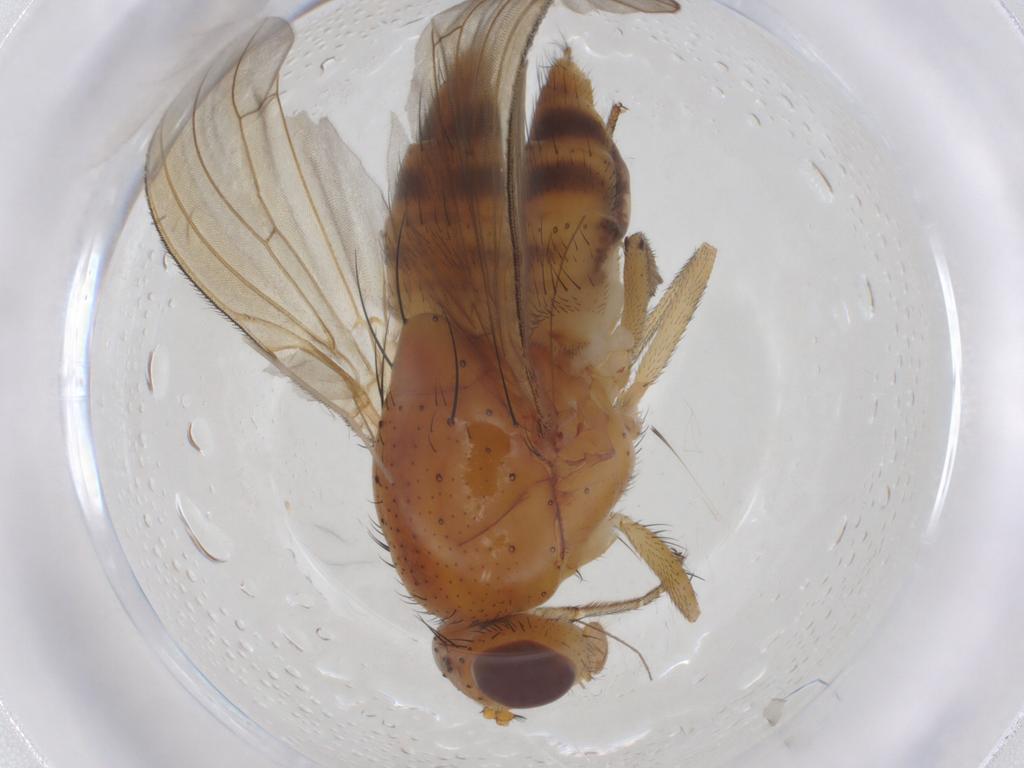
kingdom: Animalia
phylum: Arthropoda
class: Insecta
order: Diptera
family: Chironomidae
